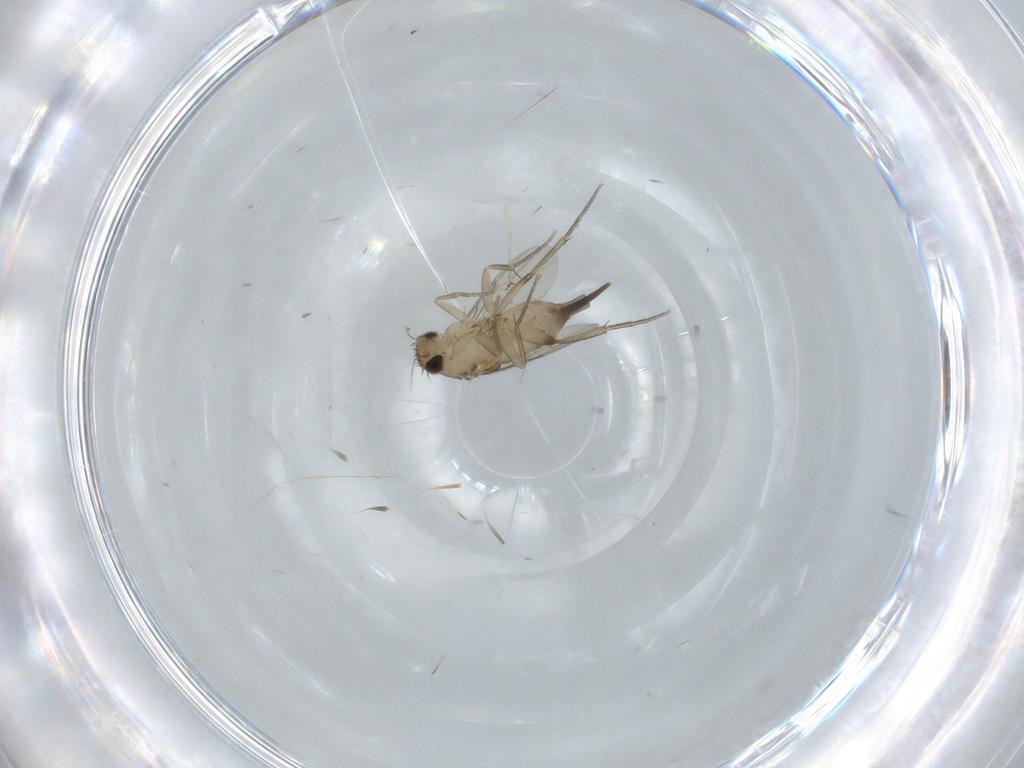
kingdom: Animalia
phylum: Arthropoda
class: Insecta
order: Diptera
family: Chironomidae
